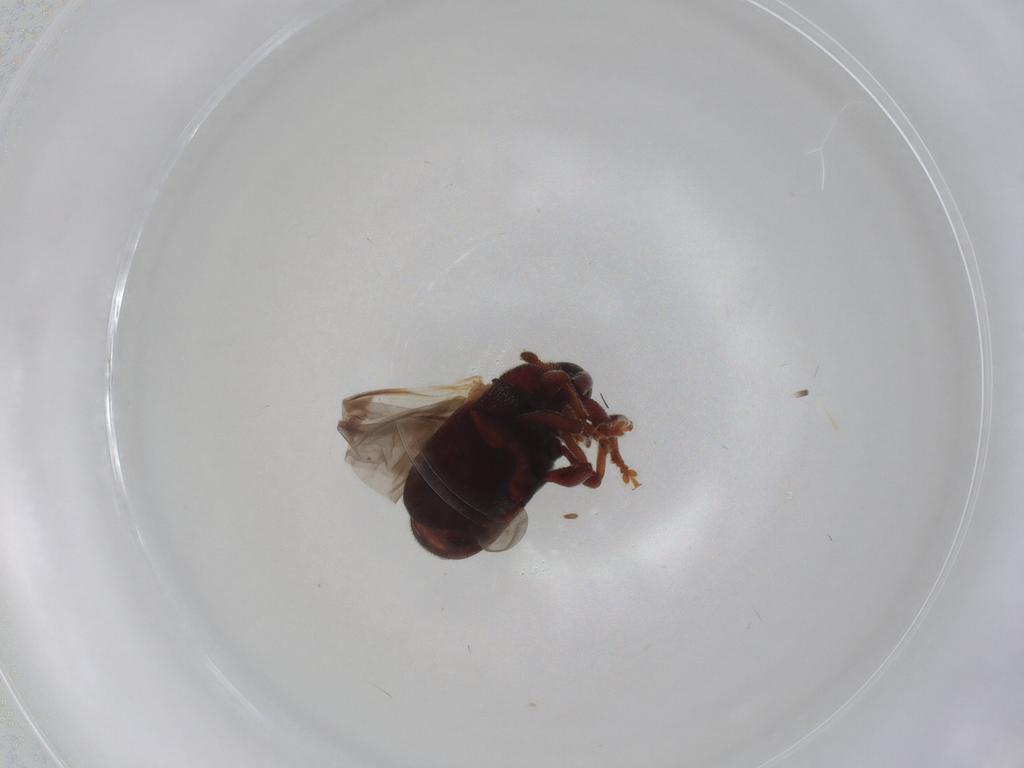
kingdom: Animalia
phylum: Arthropoda
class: Insecta
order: Coleoptera
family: Curculionidae
